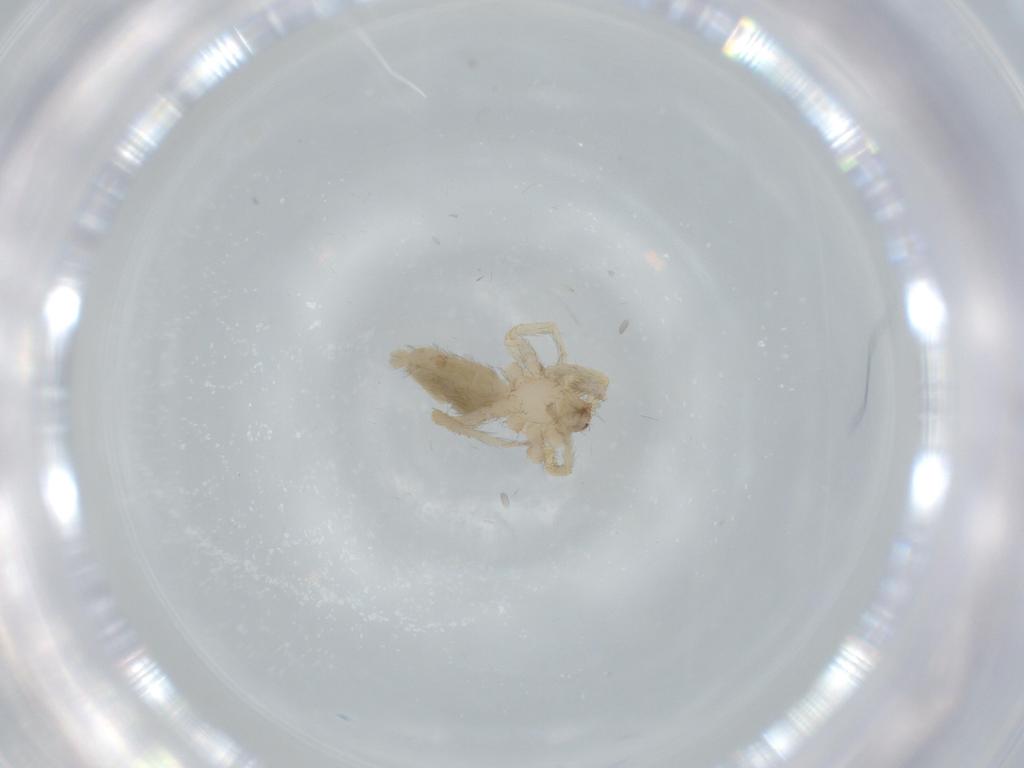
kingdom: Animalia
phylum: Arthropoda
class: Arachnida
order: Araneae
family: Oonopidae
